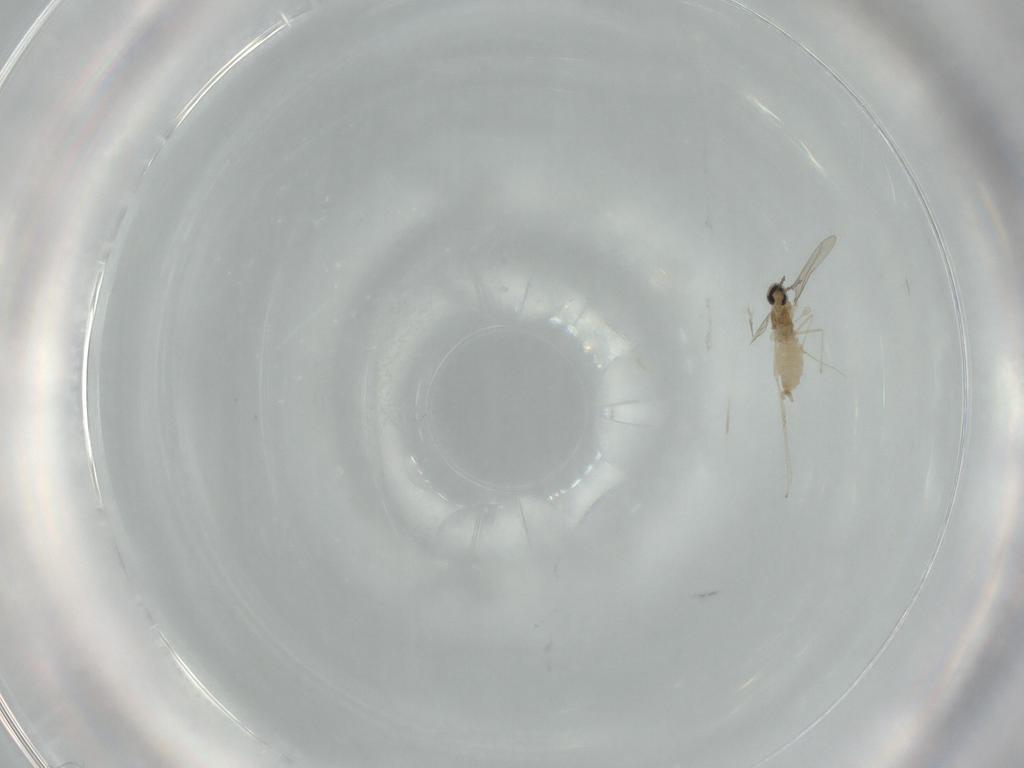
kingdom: Animalia
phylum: Arthropoda
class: Insecta
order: Diptera
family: Cecidomyiidae
